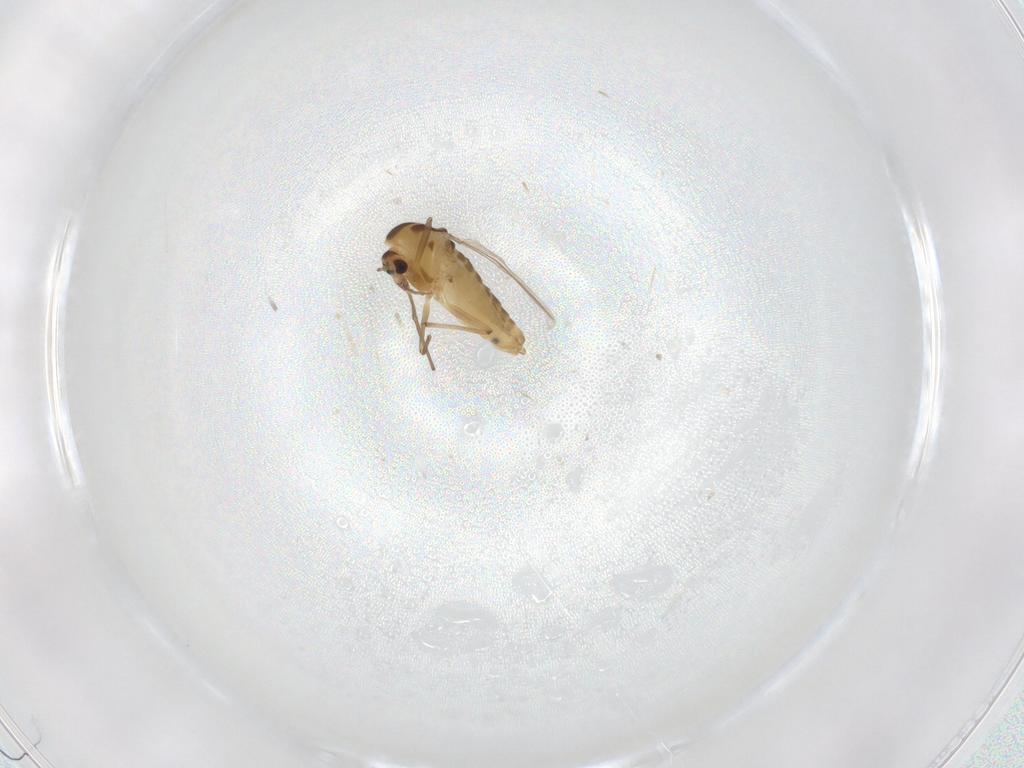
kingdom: Animalia
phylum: Arthropoda
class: Insecta
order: Diptera
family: Chironomidae
